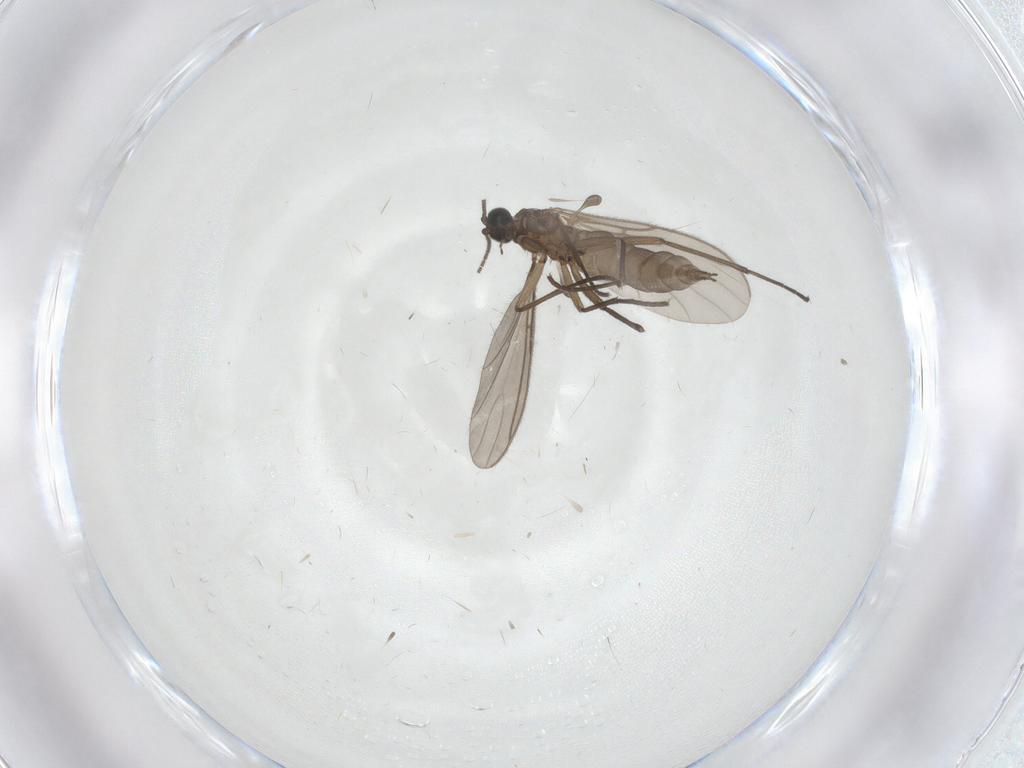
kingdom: Animalia
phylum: Arthropoda
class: Insecta
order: Diptera
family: Sciaridae
